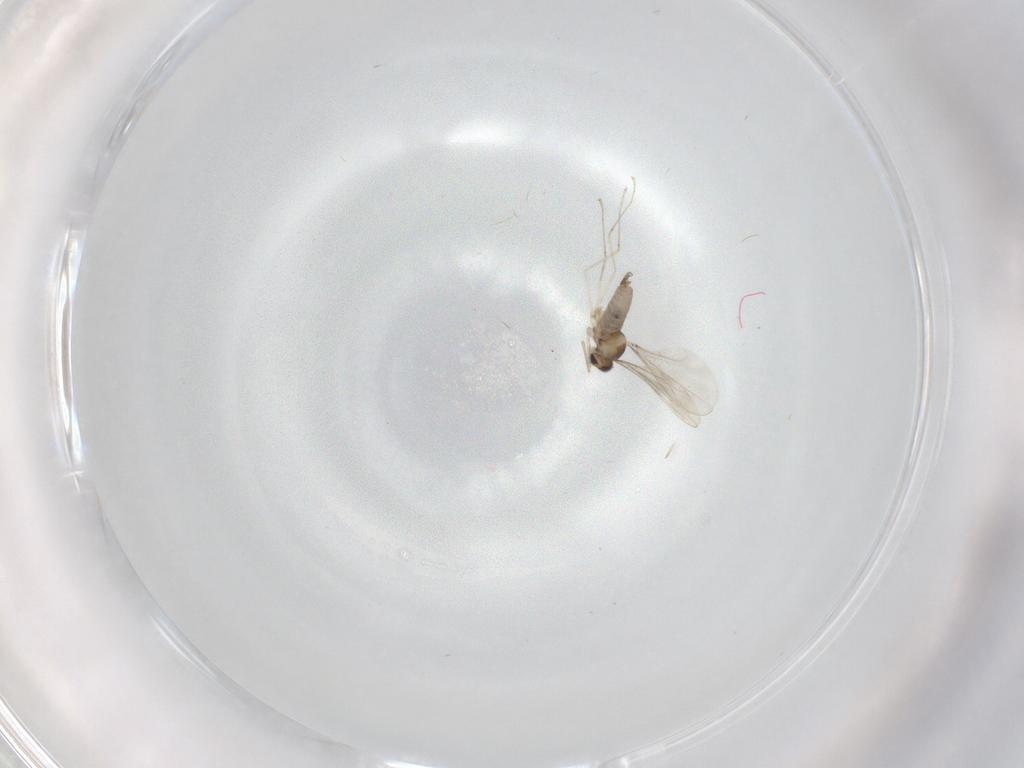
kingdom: Animalia
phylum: Arthropoda
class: Insecta
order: Diptera
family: Cecidomyiidae
